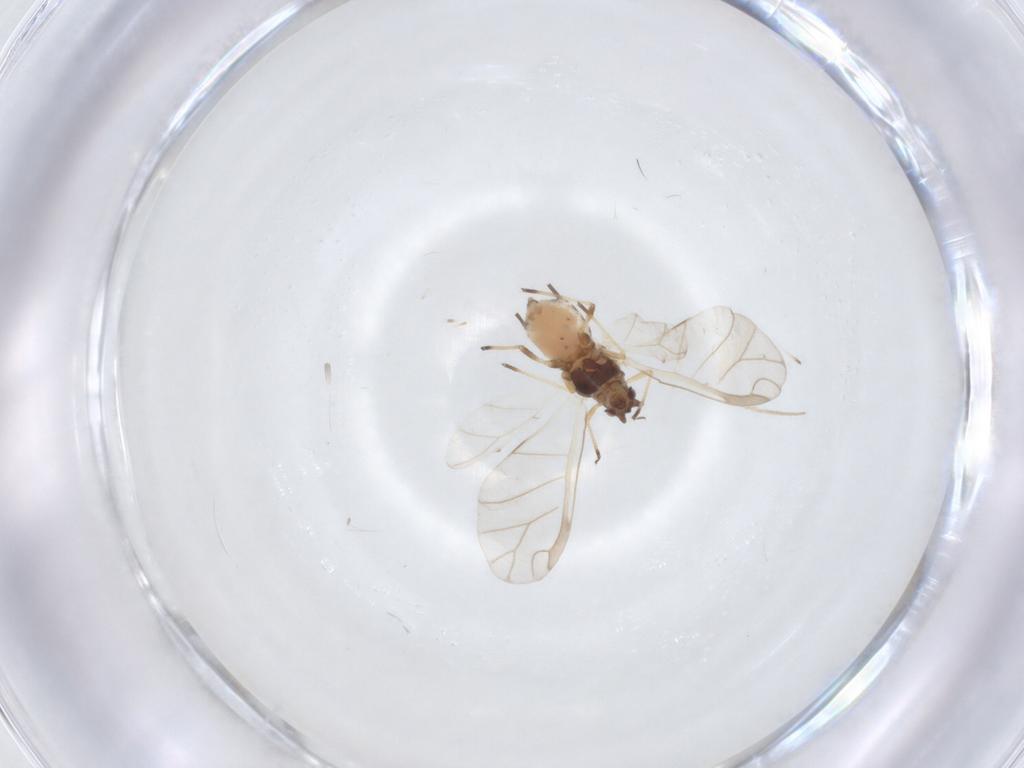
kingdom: Animalia
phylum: Arthropoda
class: Insecta
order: Hemiptera
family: Aphididae
